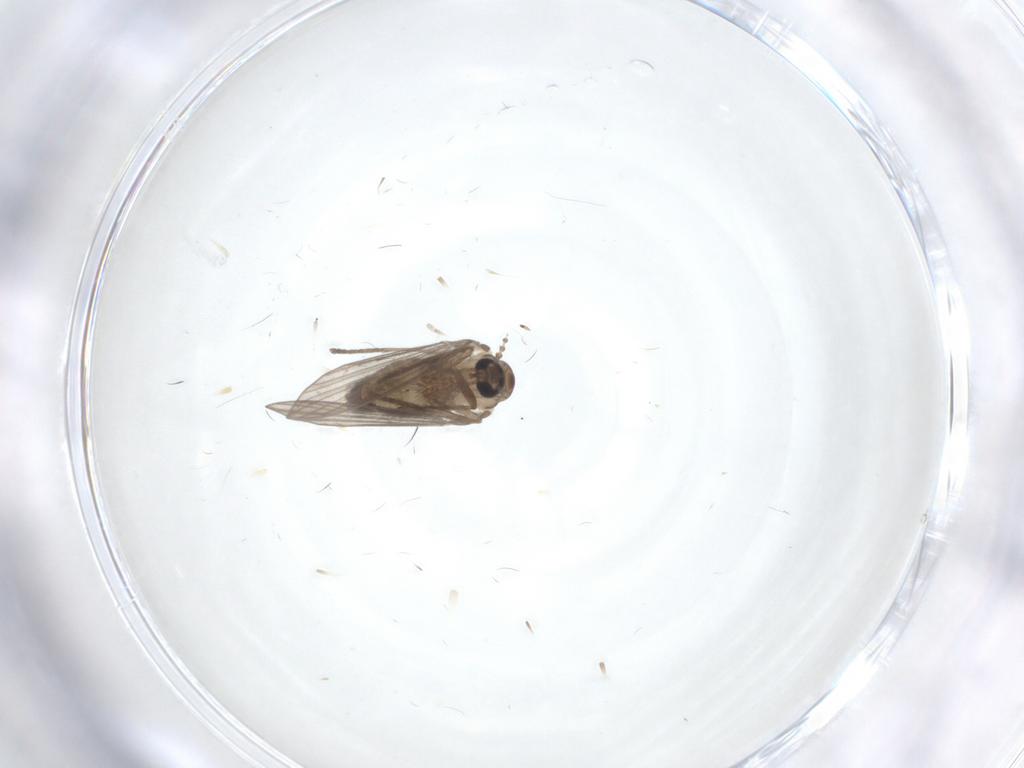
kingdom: Animalia
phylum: Arthropoda
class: Insecta
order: Diptera
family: Psychodidae
